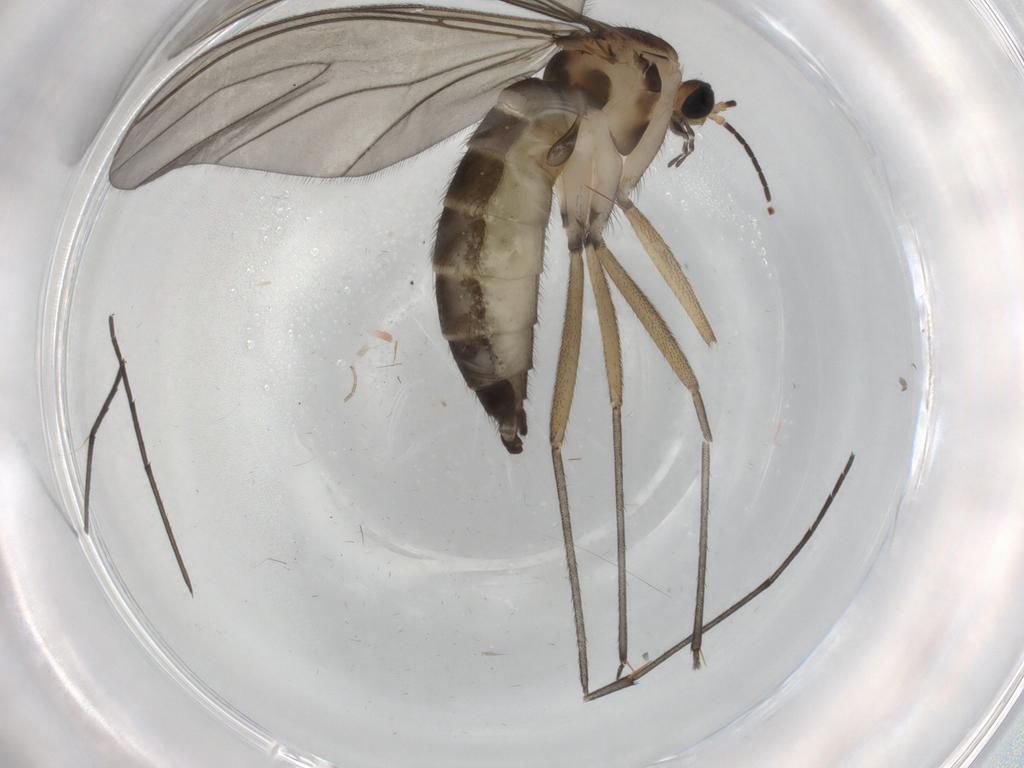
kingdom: Animalia
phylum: Arthropoda
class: Insecta
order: Diptera
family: Sciaridae
